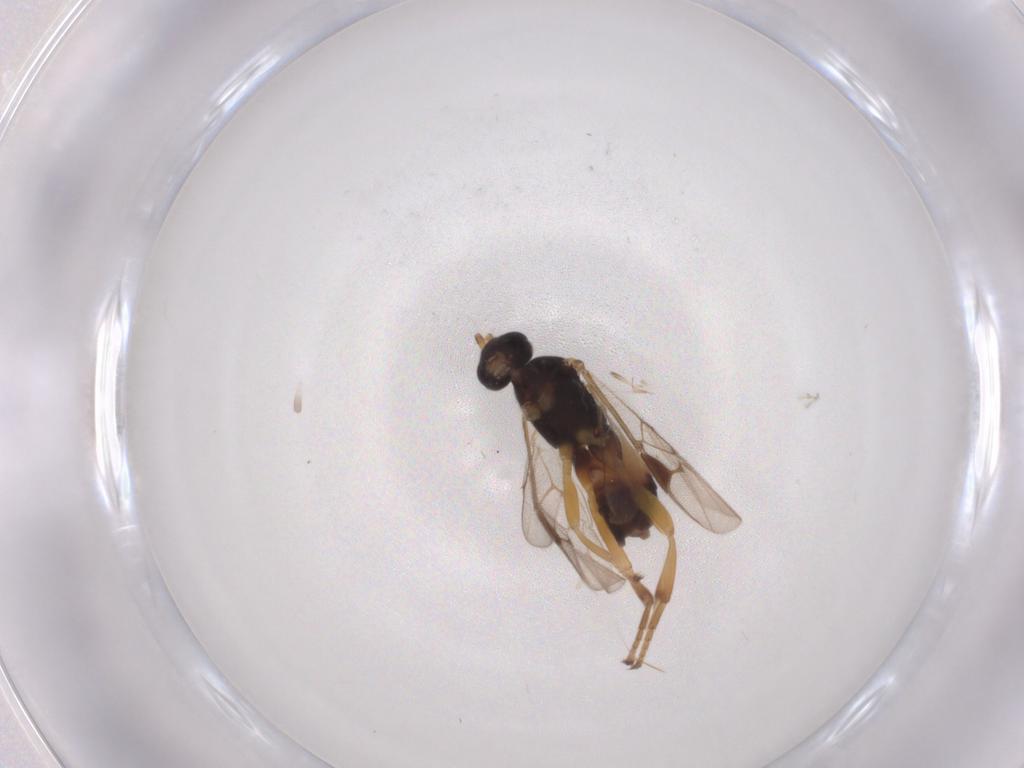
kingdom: Animalia
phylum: Arthropoda
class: Insecta
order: Hymenoptera
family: Braconidae
